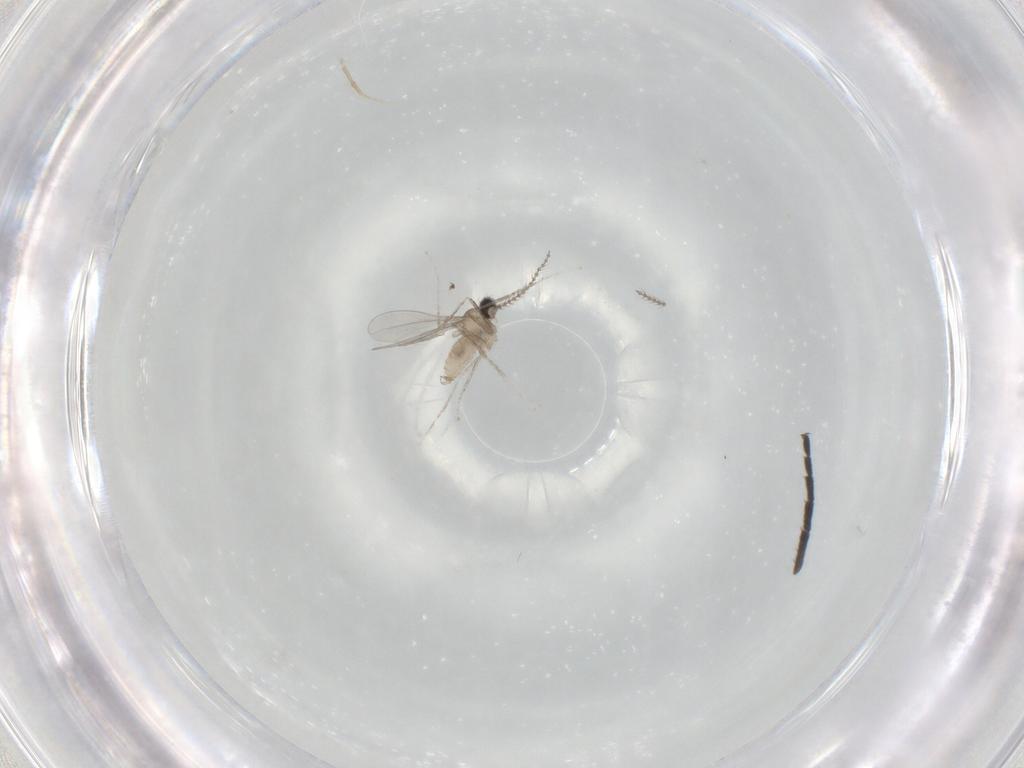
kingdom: Animalia
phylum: Arthropoda
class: Insecta
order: Diptera
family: Cecidomyiidae
